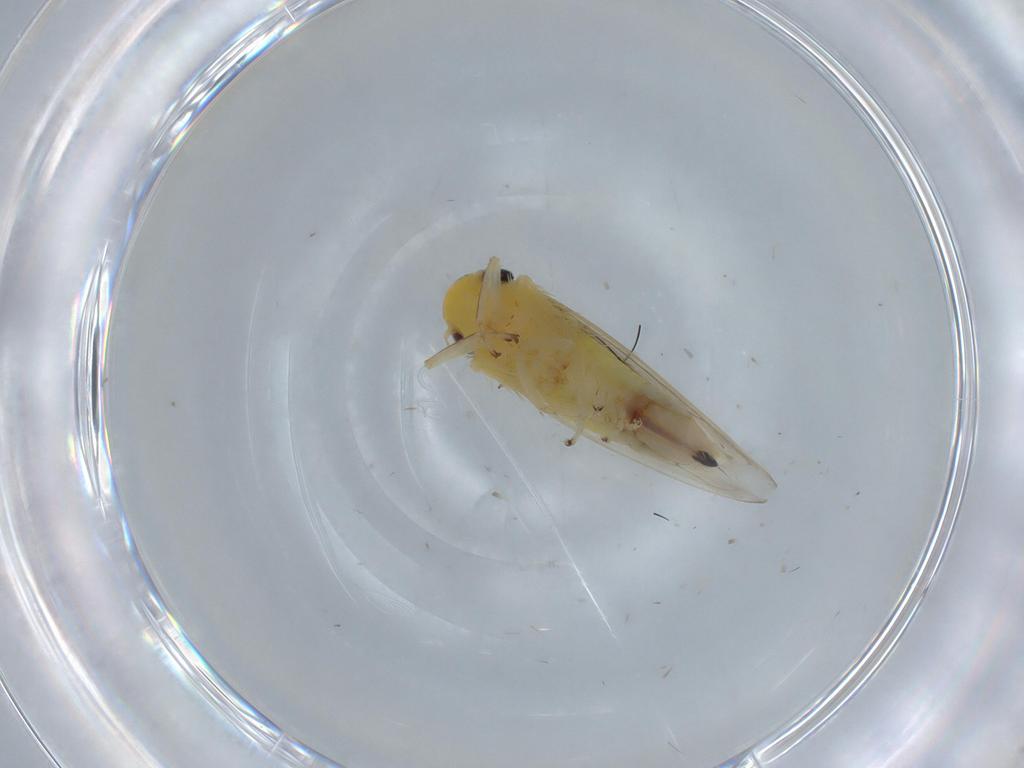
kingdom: Animalia
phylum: Arthropoda
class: Insecta
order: Hemiptera
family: Cicadellidae
